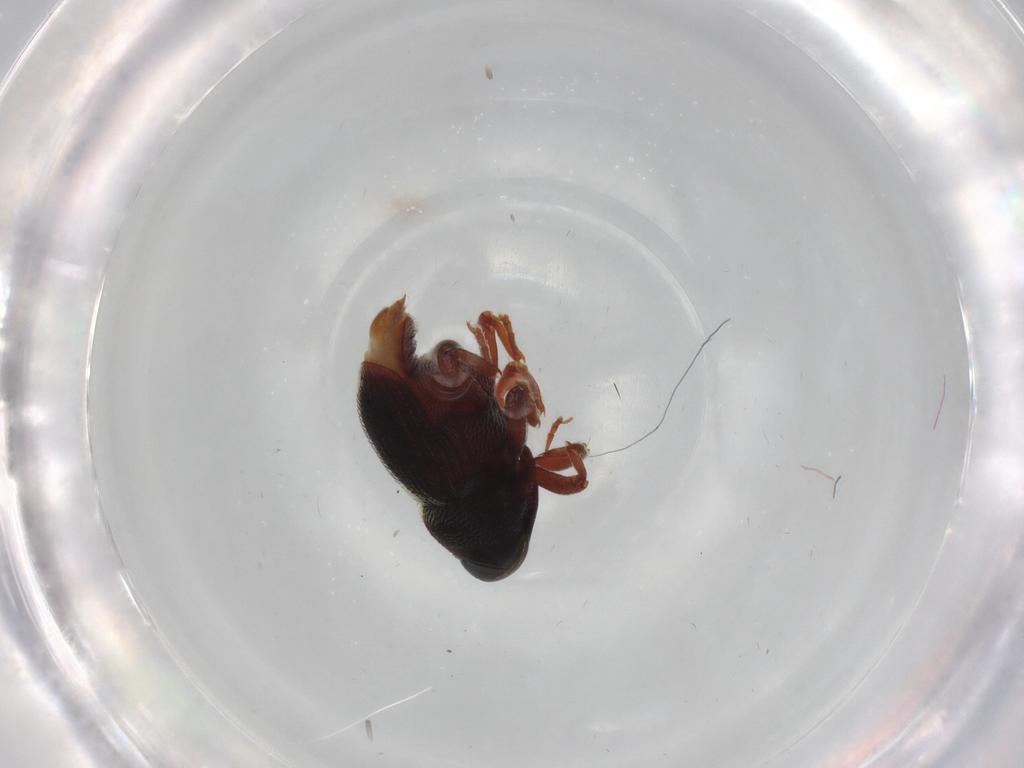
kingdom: Animalia
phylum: Arthropoda
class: Insecta
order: Coleoptera
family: Curculionidae
